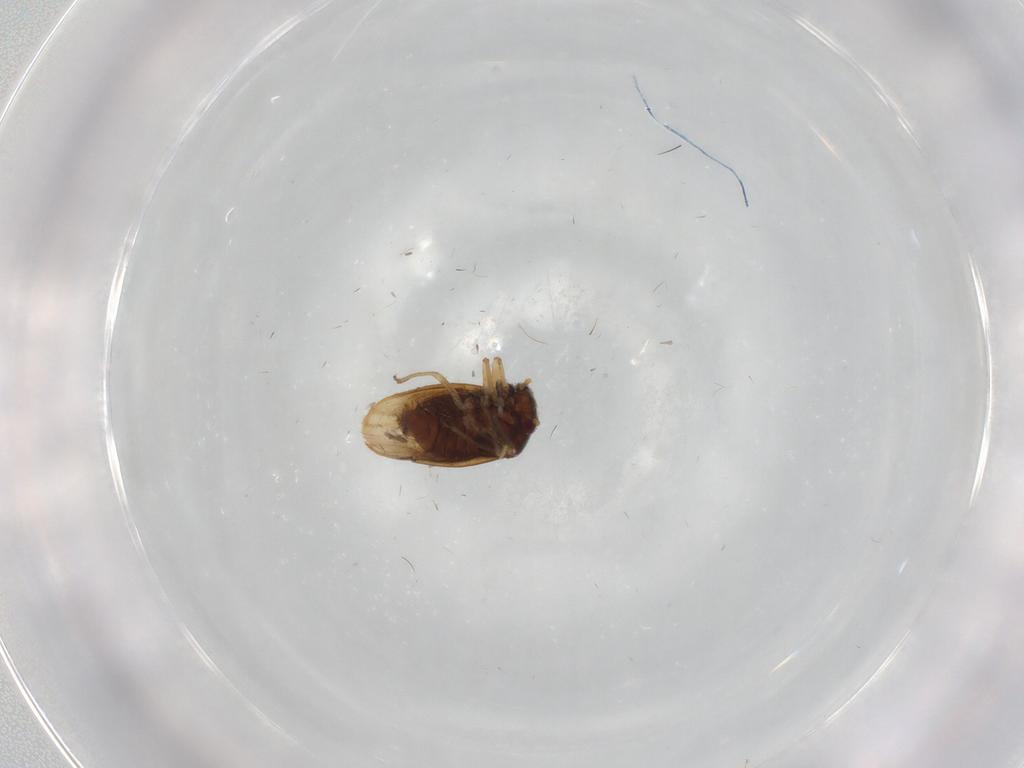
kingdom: Animalia
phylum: Arthropoda
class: Insecta
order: Hemiptera
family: Schizopteridae
